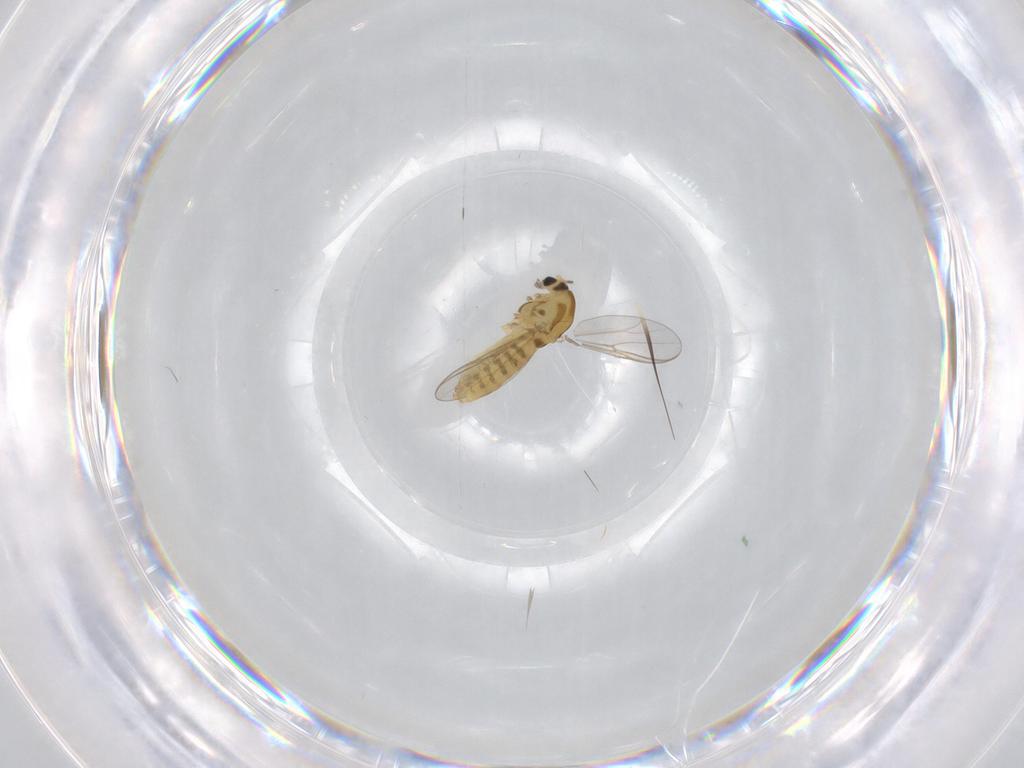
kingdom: Animalia
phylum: Arthropoda
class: Insecta
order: Diptera
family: Chironomidae
